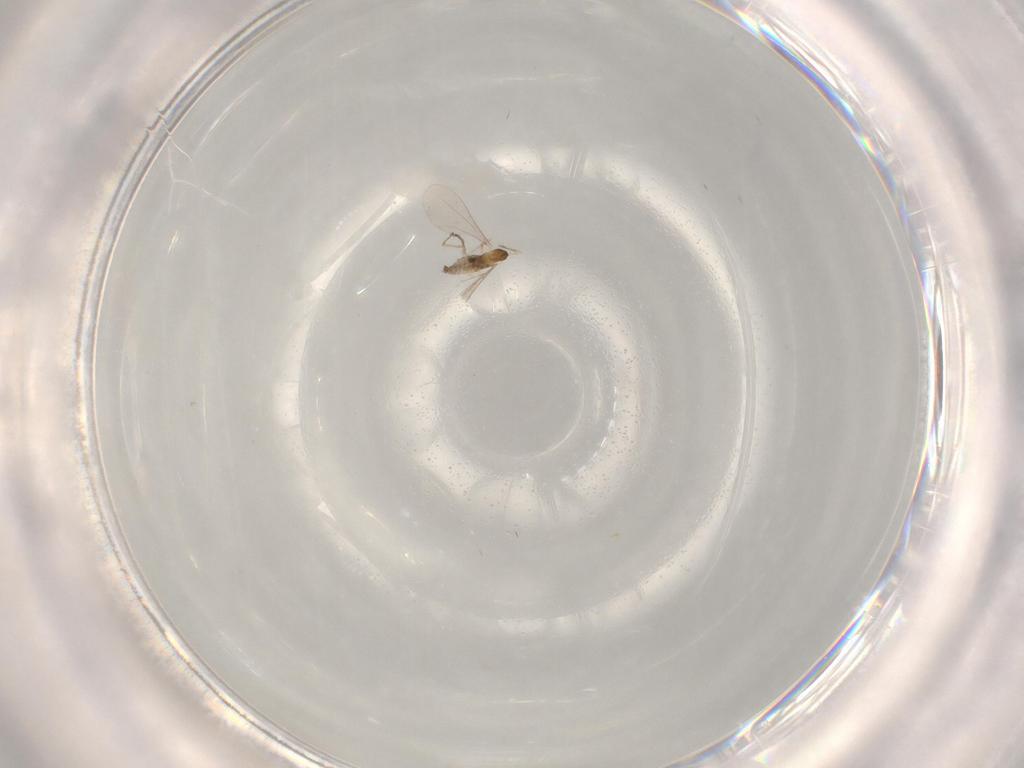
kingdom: Animalia
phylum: Arthropoda
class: Insecta
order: Diptera
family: Cecidomyiidae
